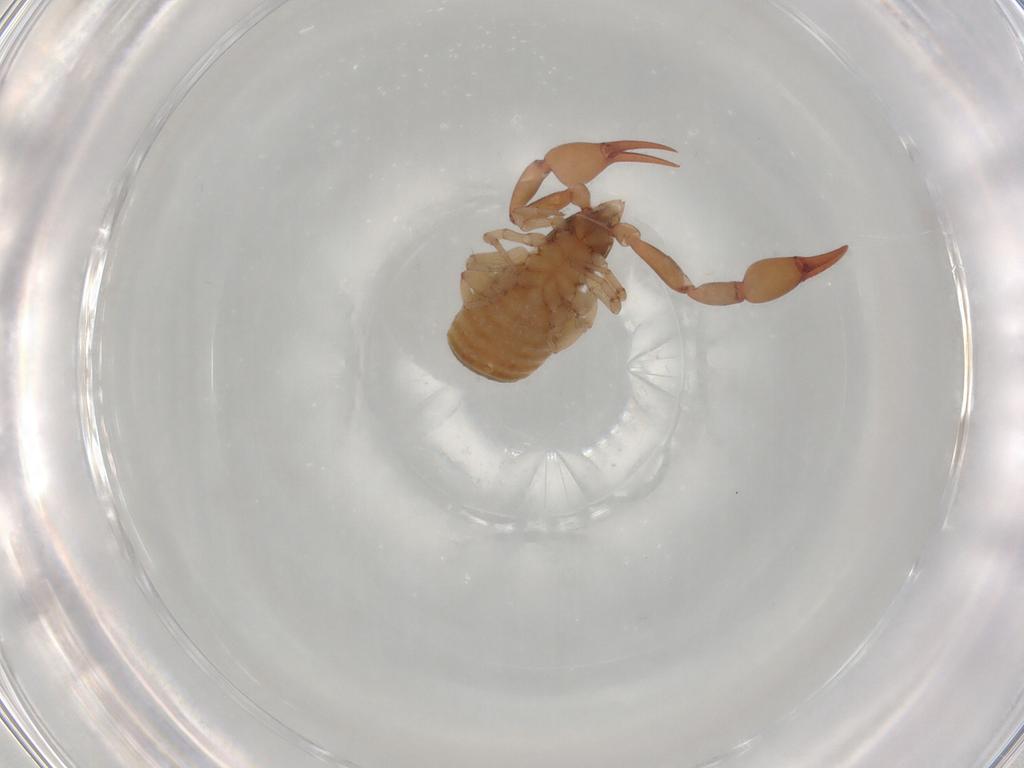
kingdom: Animalia
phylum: Arthropoda
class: Arachnida
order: Pseudoscorpiones
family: Olpiidae
